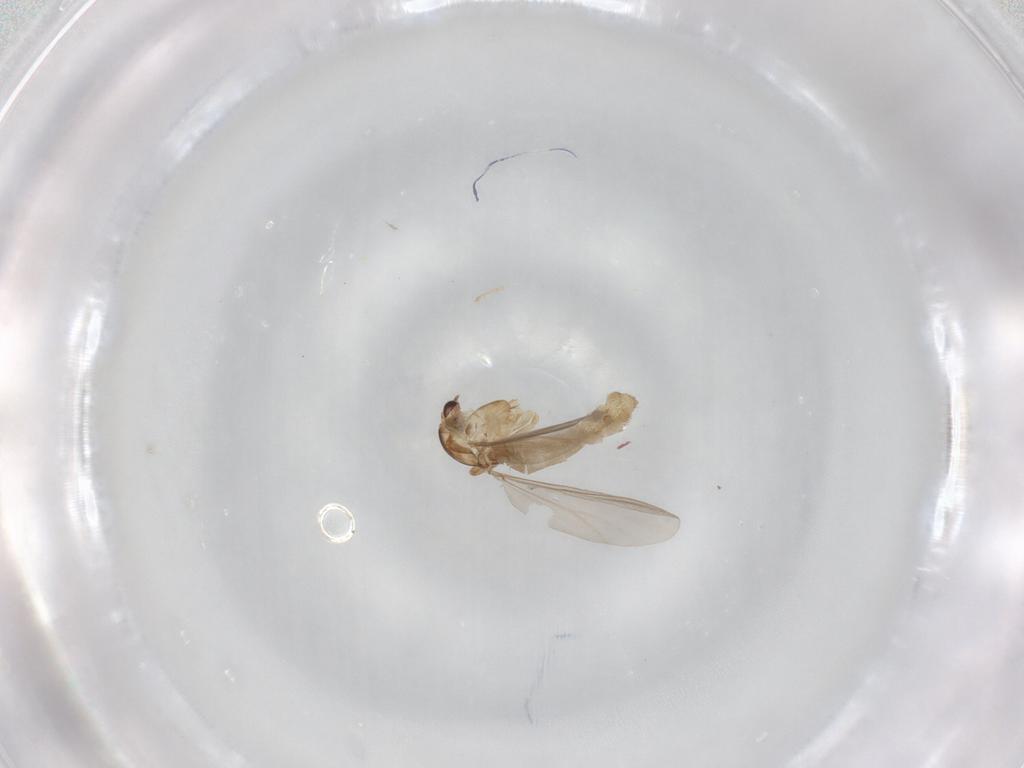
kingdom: Animalia
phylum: Arthropoda
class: Insecta
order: Diptera
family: Chironomidae
